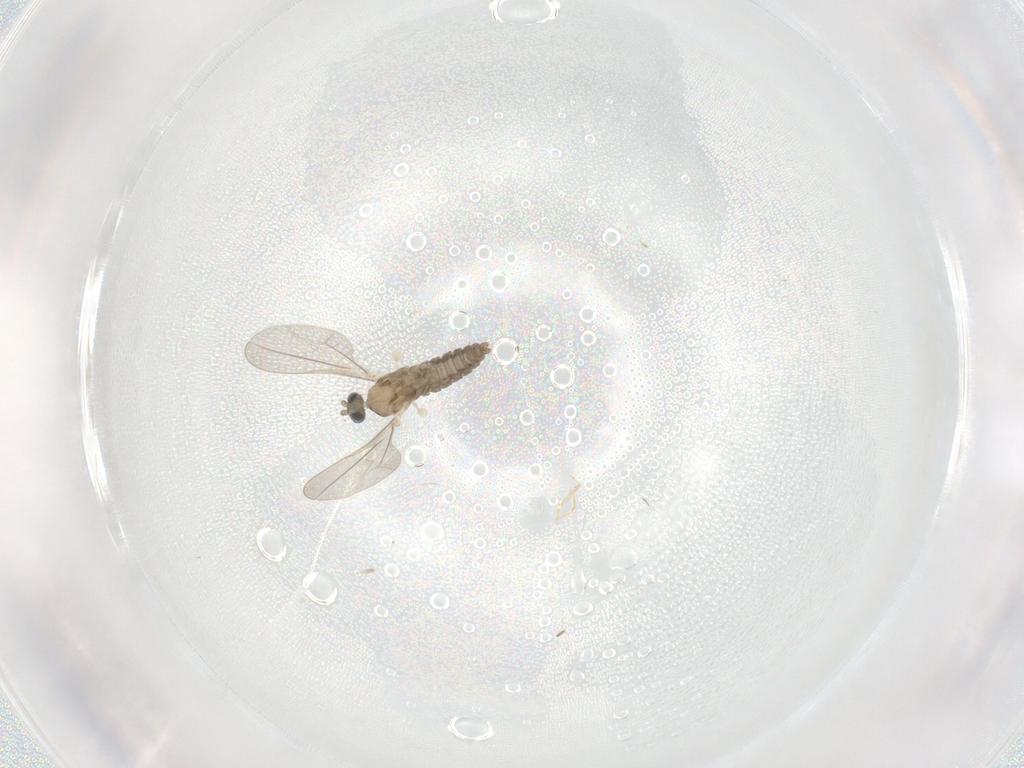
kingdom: Animalia
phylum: Arthropoda
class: Insecta
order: Diptera
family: Cecidomyiidae
